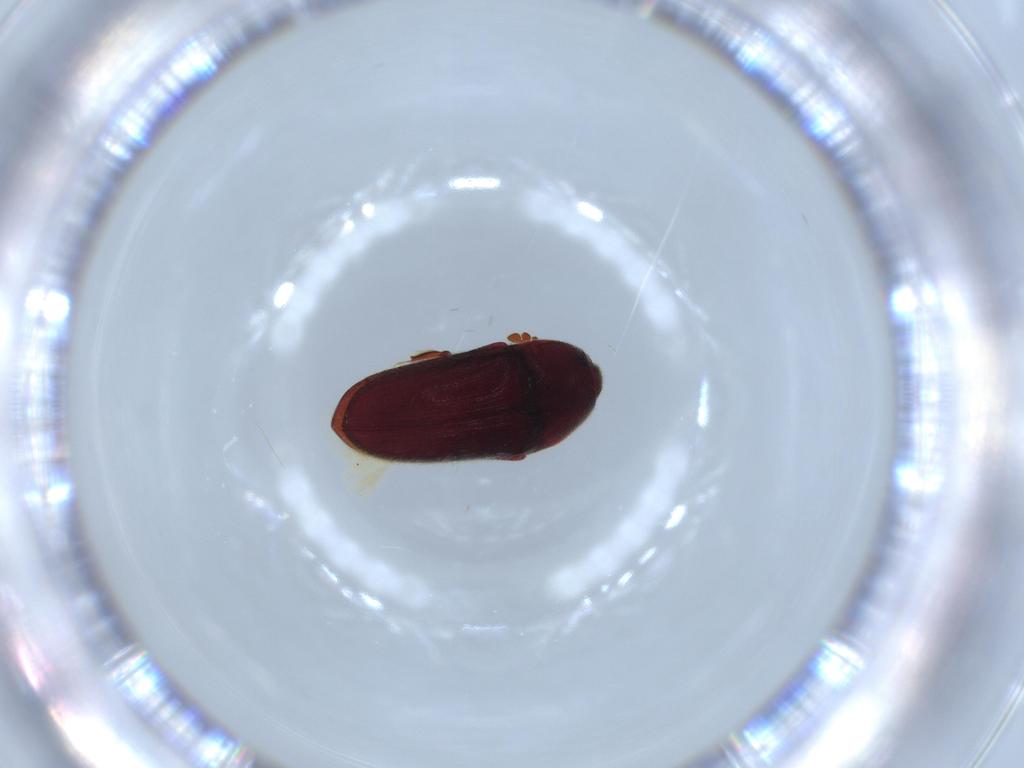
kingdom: Animalia
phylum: Arthropoda
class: Insecta
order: Coleoptera
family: Throscidae
